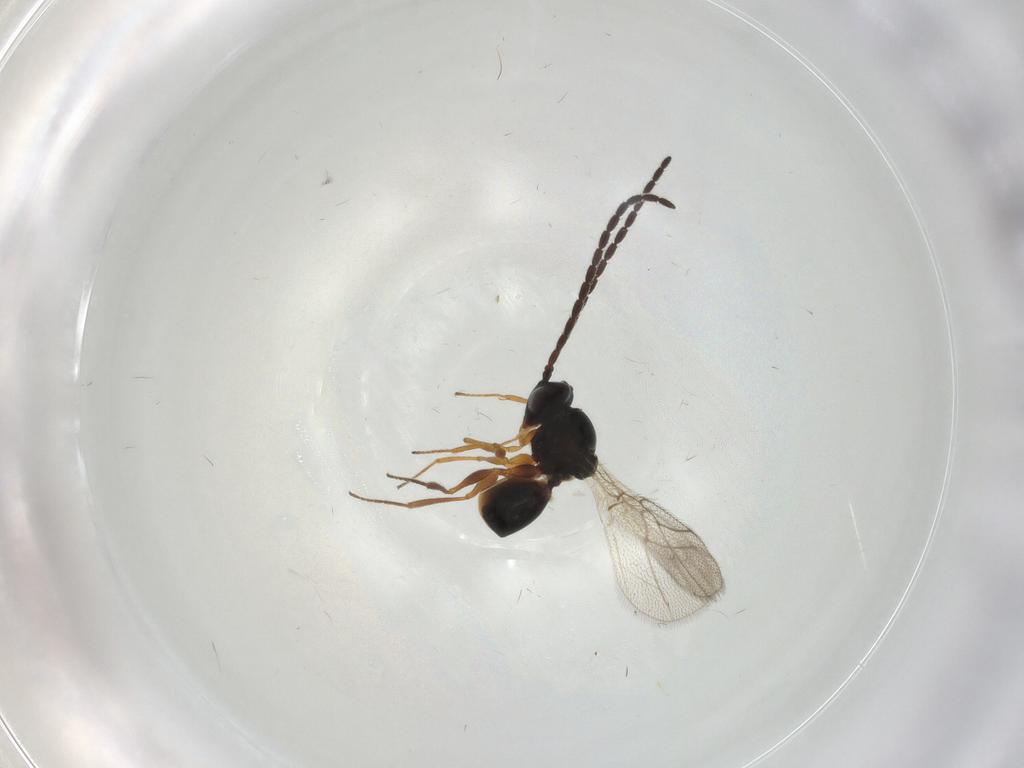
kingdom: Animalia
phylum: Arthropoda
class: Insecta
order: Hymenoptera
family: Figitidae
